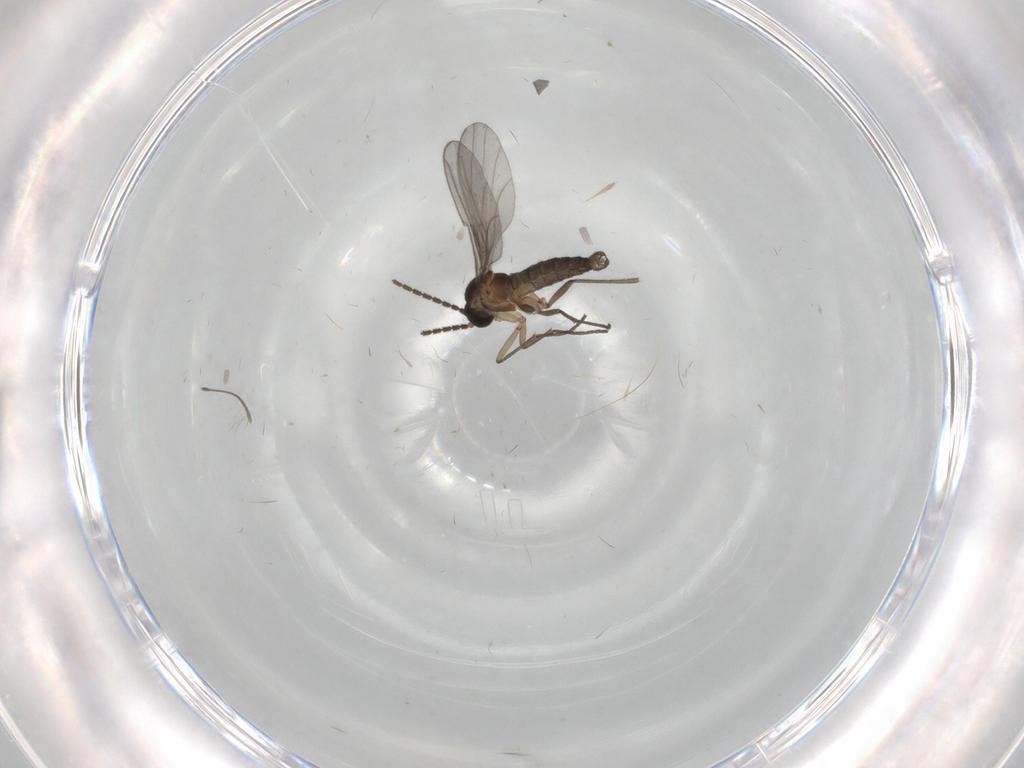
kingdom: Animalia
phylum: Arthropoda
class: Insecta
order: Diptera
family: Sciaridae
